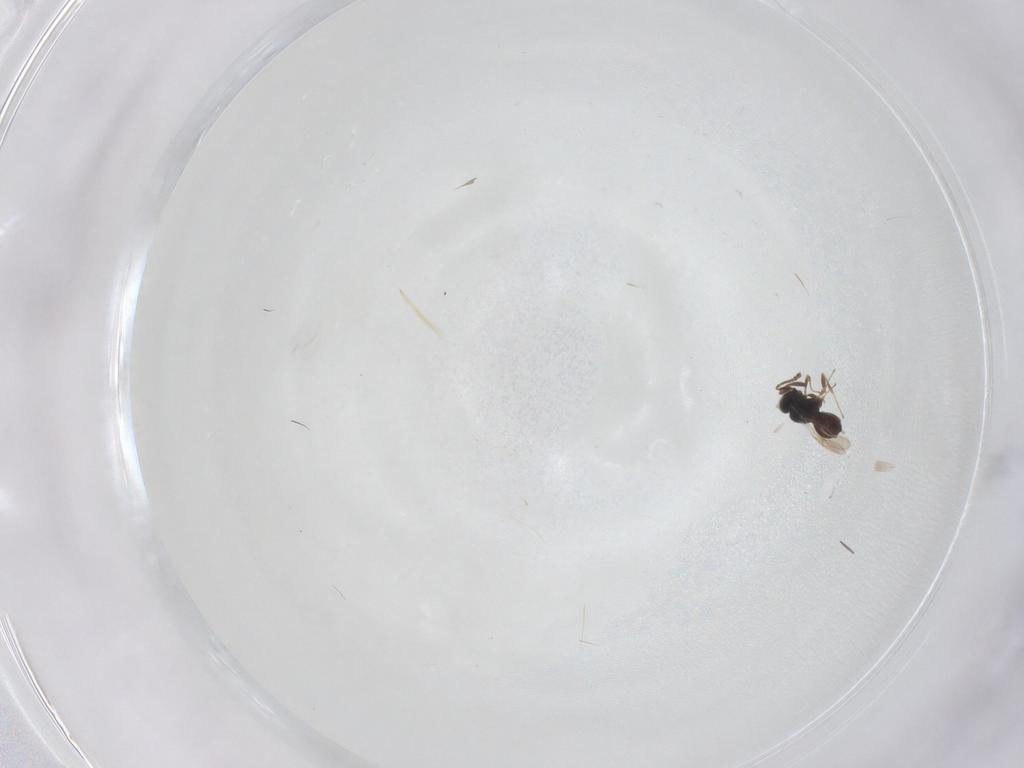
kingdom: Animalia
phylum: Arthropoda
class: Insecta
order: Hymenoptera
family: Scelionidae
